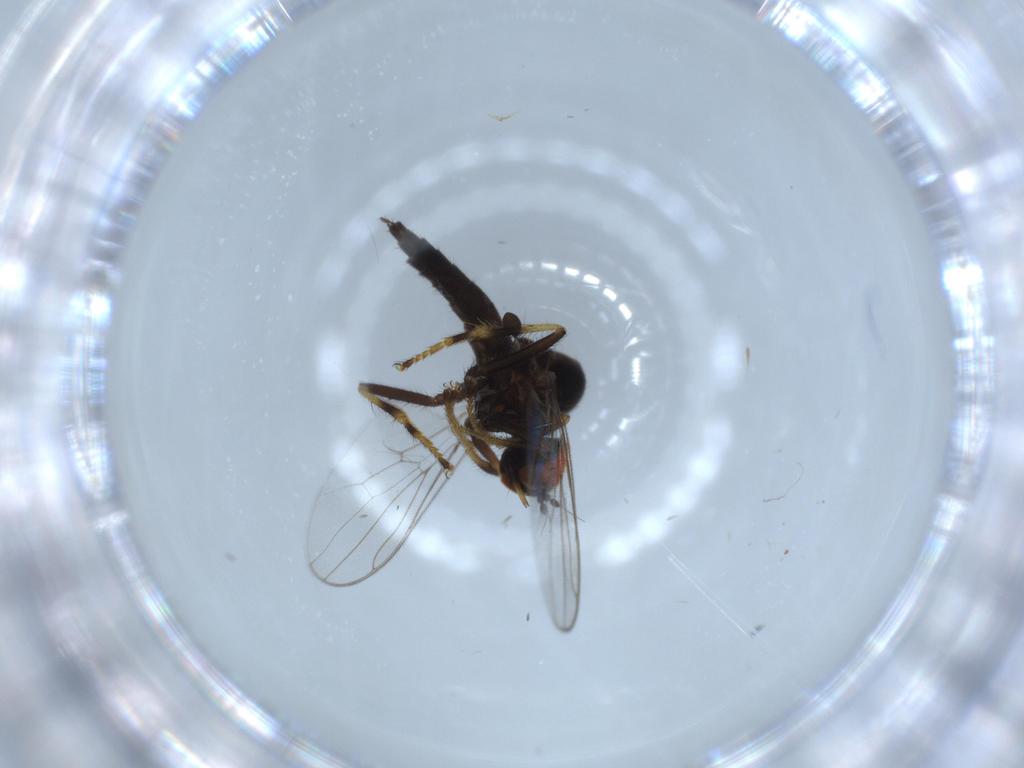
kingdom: Animalia
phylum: Arthropoda
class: Insecta
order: Diptera
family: Hybotidae
